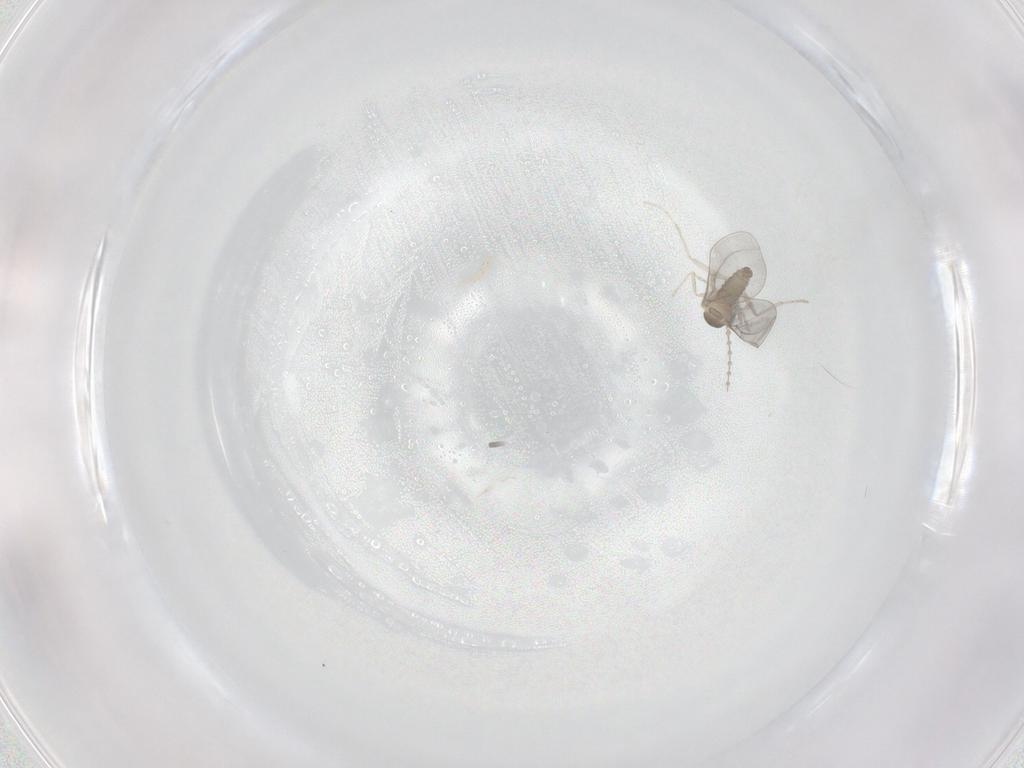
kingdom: Animalia
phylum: Arthropoda
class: Insecta
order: Diptera
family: Cecidomyiidae
